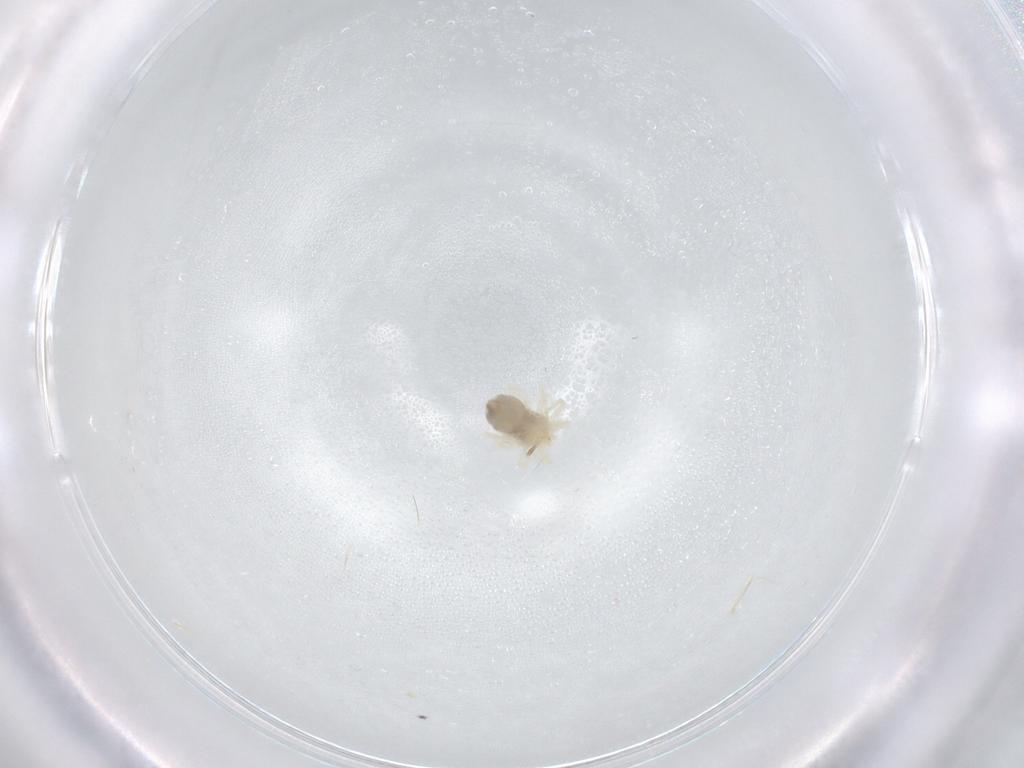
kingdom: Animalia
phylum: Arthropoda
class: Arachnida
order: Trombidiformes
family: Anystidae
